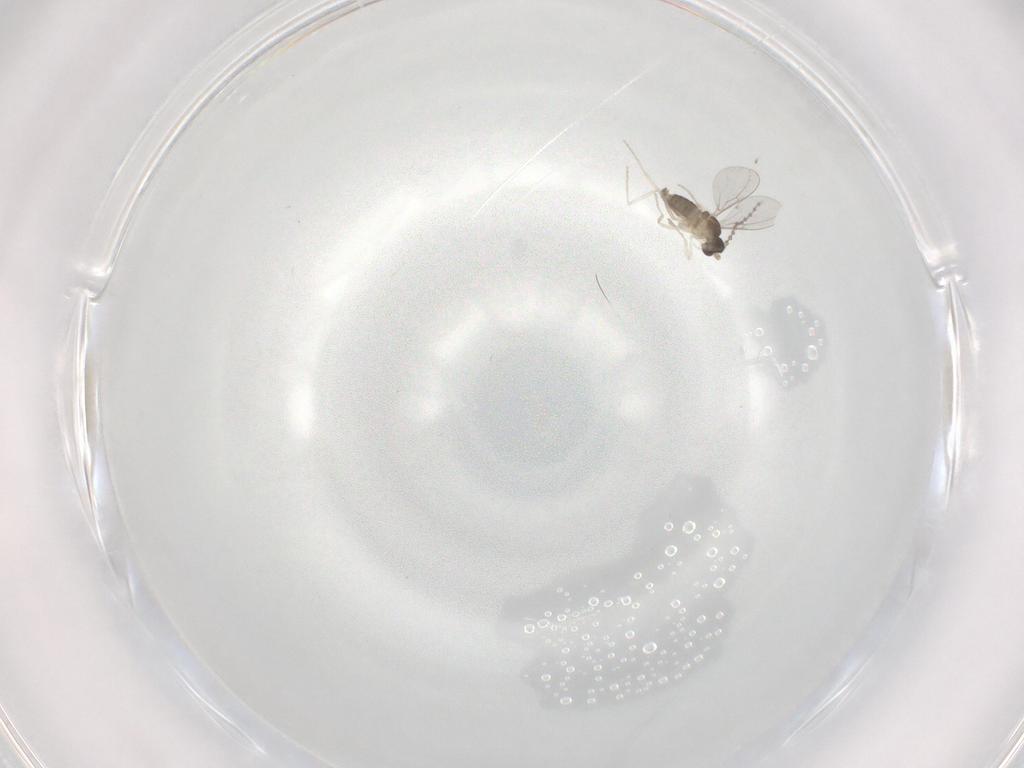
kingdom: Animalia
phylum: Arthropoda
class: Insecta
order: Diptera
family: Cecidomyiidae
